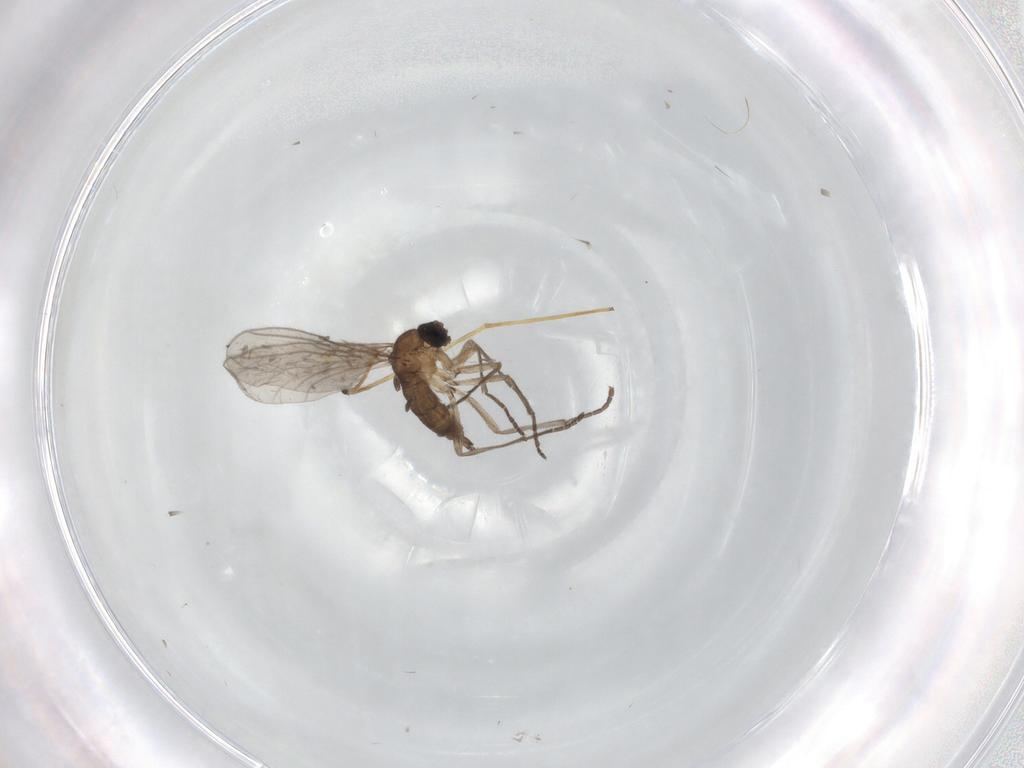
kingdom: Animalia
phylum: Arthropoda
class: Insecta
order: Diptera
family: Sciaridae
